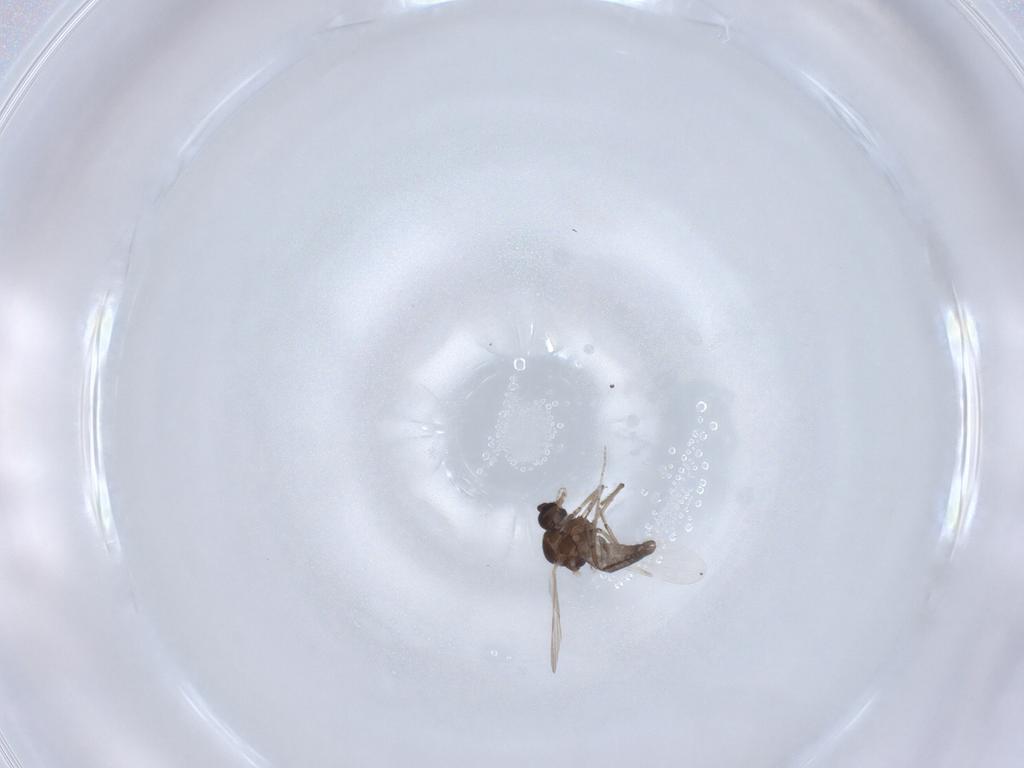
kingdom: Animalia
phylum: Arthropoda
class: Insecta
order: Diptera
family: Ceratopogonidae
